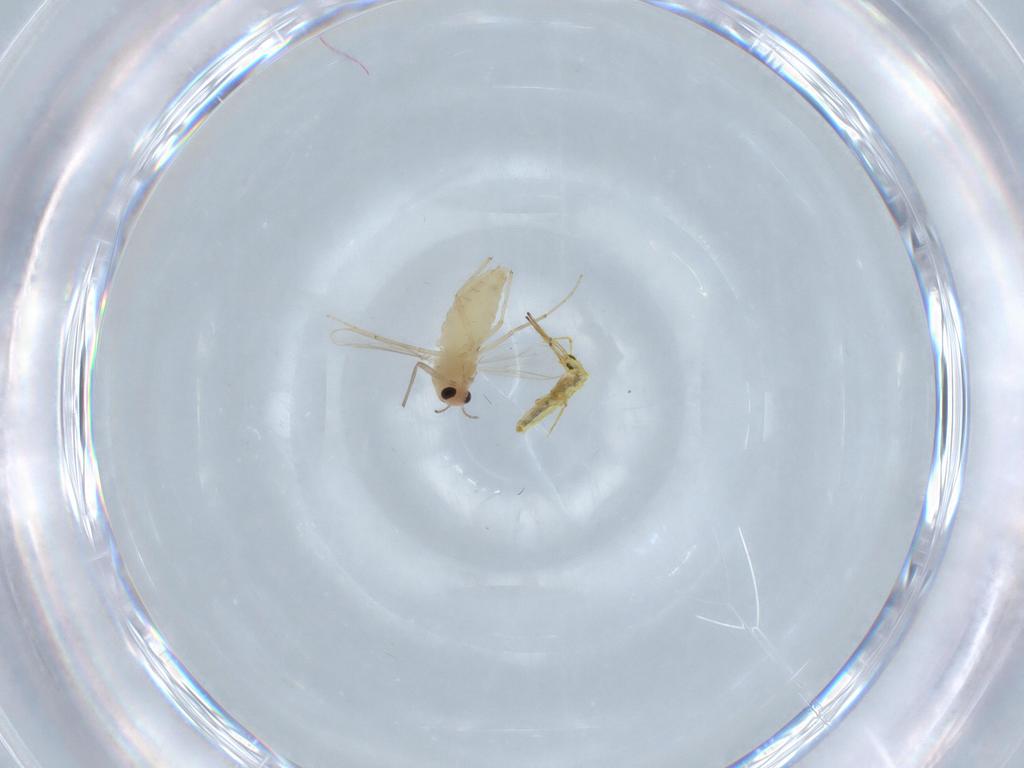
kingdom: Animalia
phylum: Arthropoda
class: Insecta
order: Diptera
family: Chironomidae
